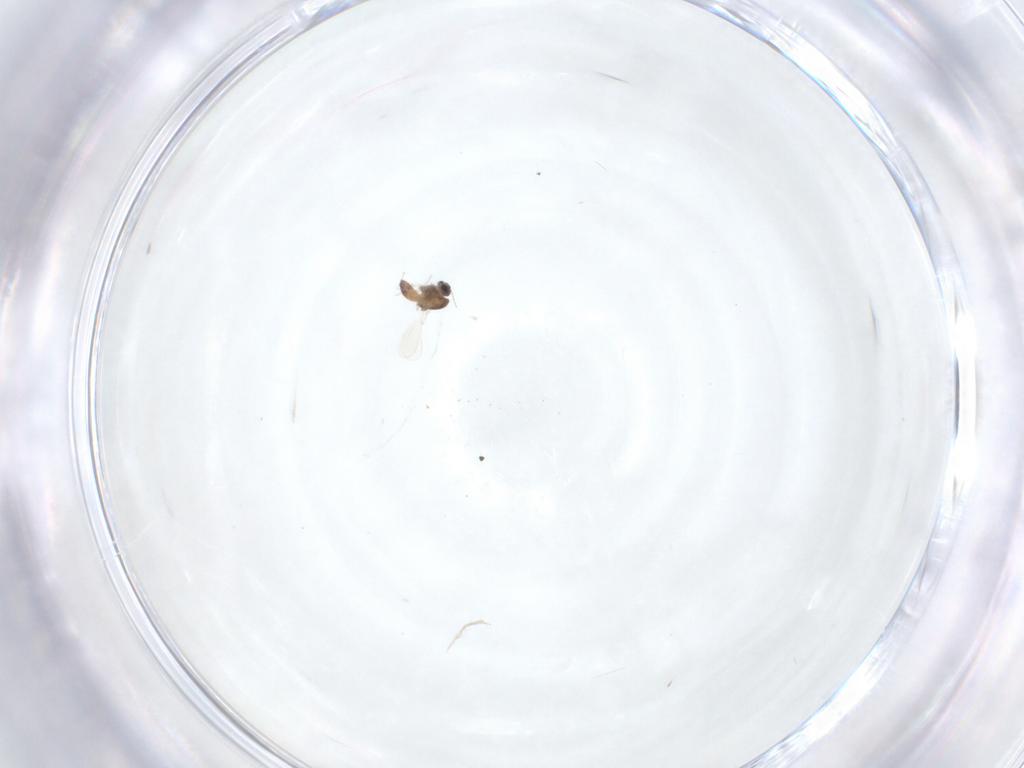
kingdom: Animalia
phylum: Arthropoda
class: Insecta
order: Diptera
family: Chironomidae
